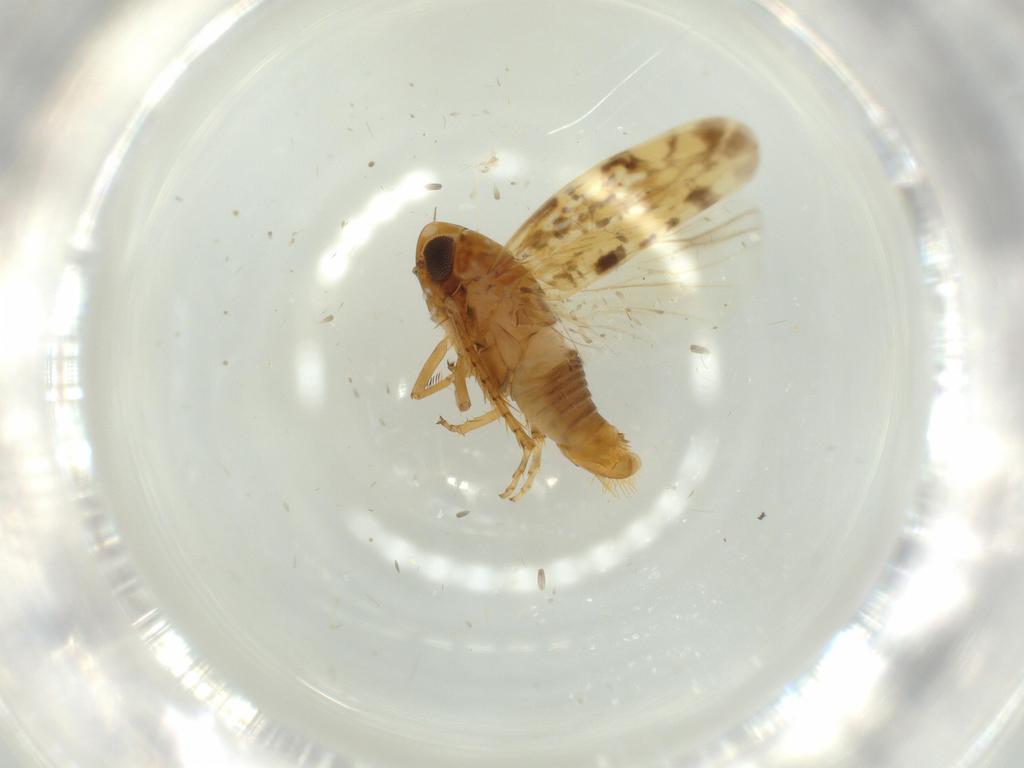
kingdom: Animalia
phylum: Arthropoda
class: Insecta
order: Hemiptera
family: Cicadellidae
